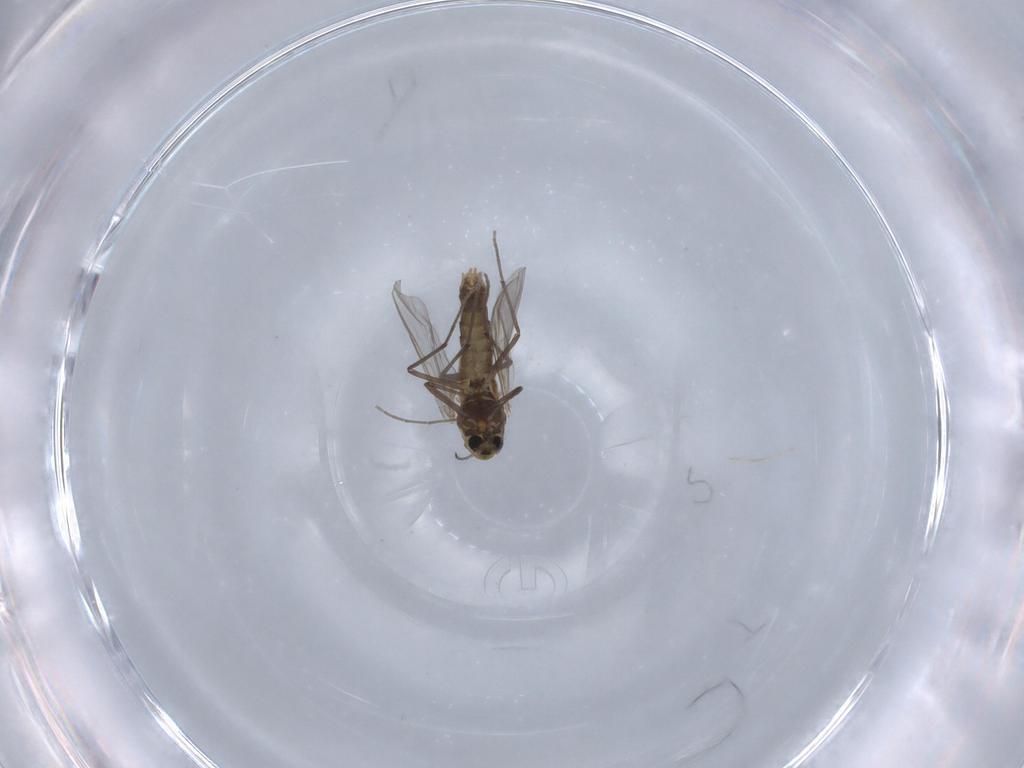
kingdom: Animalia
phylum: Arthropoda
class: Insecta
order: Diptera
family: Chironomidae
